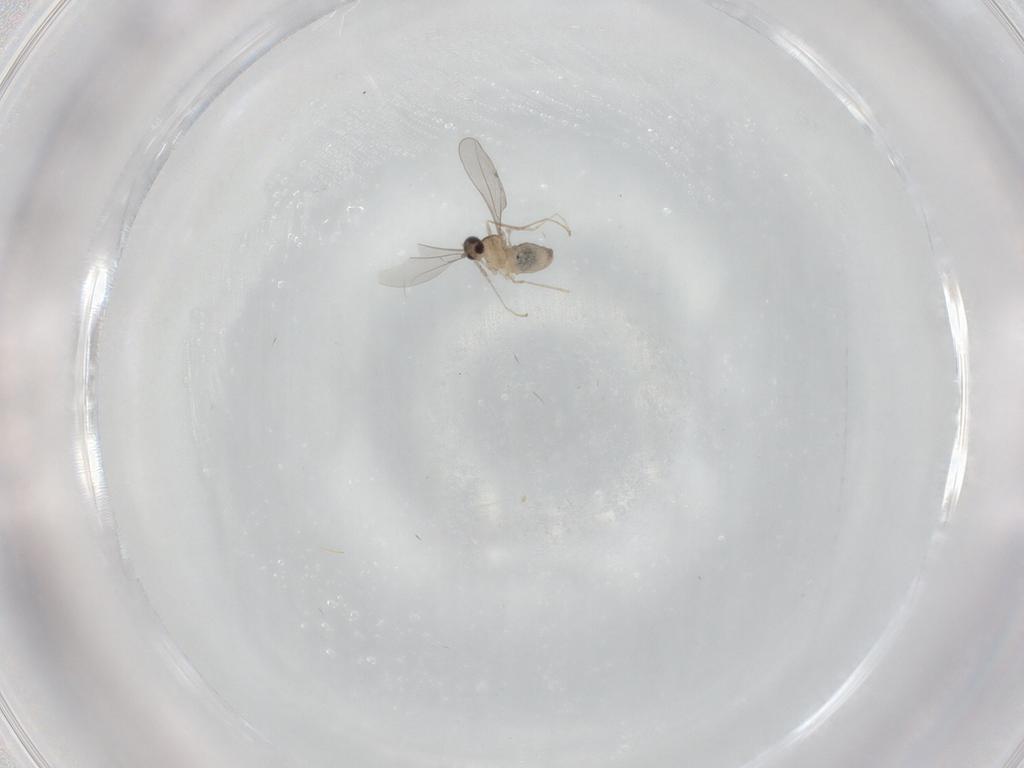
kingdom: Animalia
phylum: Arthropoda
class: Insecta
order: Diptera
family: Cecidomyiidae
